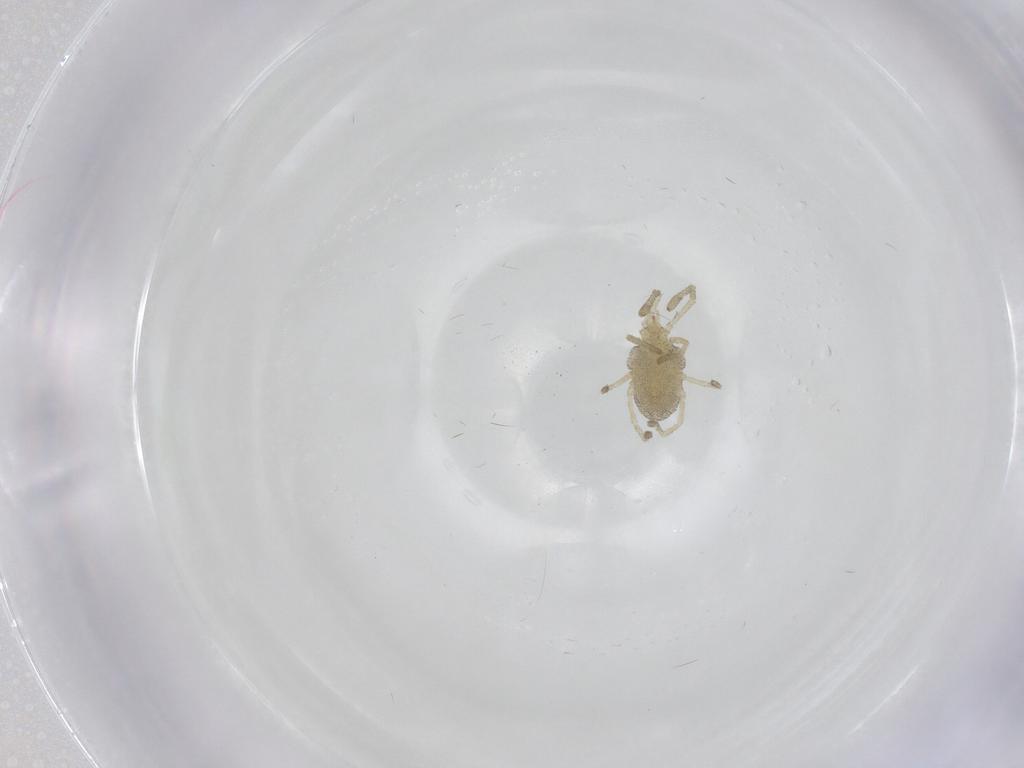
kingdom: Animalia
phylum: Arthropoda
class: Arachnida
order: Trombidiformes
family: Smarididae
